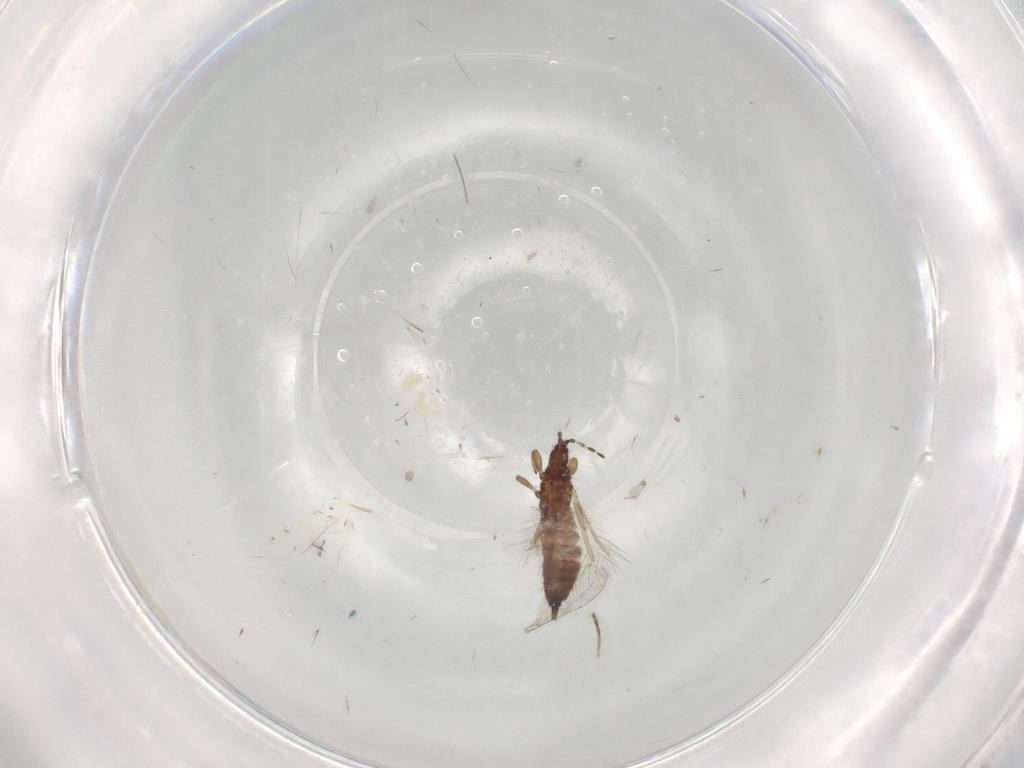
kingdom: Animalia
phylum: Arthropoda
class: Insecta
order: Thysanoptera
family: Phlaeothripidae
